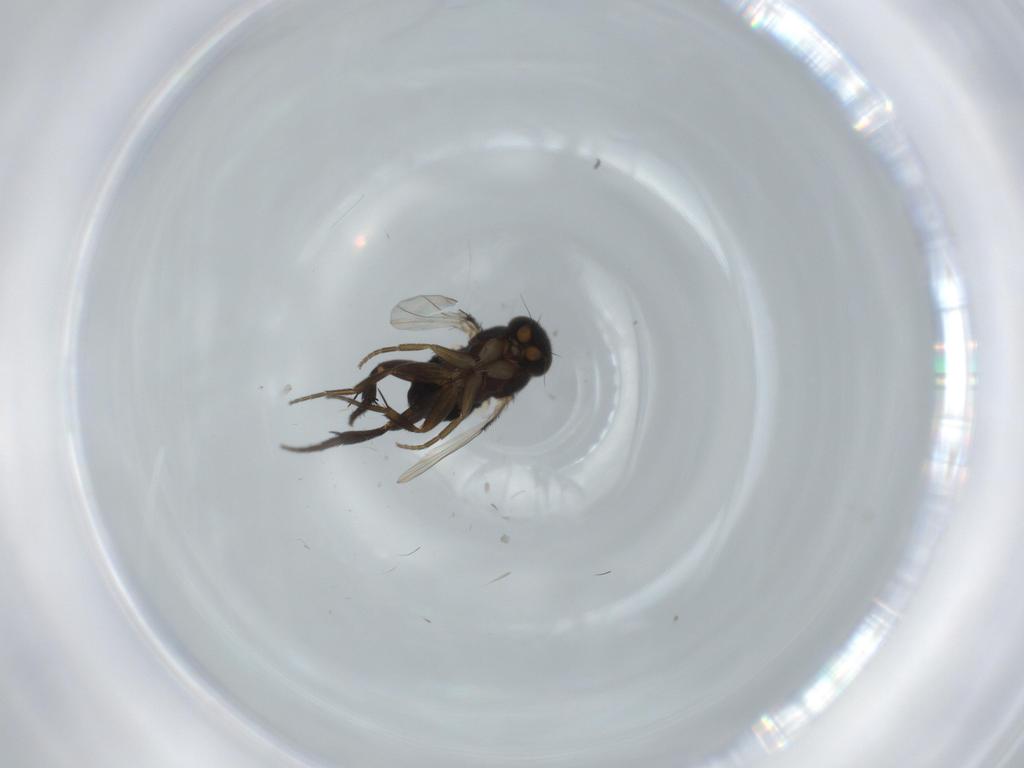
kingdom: Animalia
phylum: Arthropoda
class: Insecta
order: Diptera
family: Phoridae
